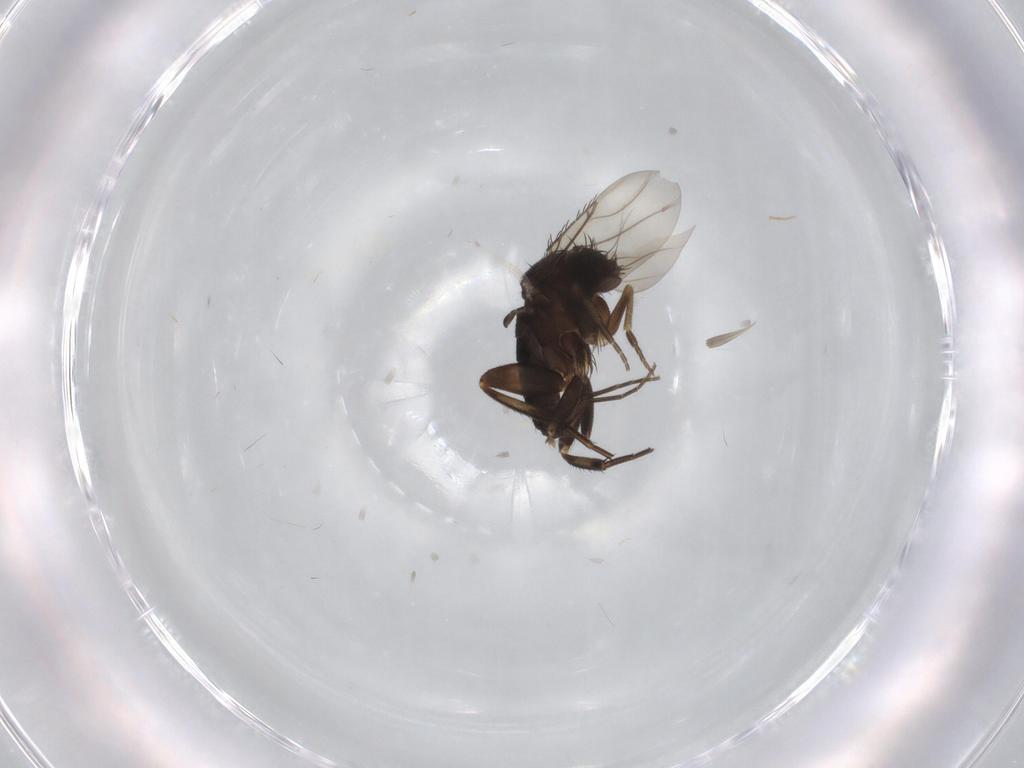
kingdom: Animalia
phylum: Arthropoda
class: Insecta
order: Diptera
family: Phoridae
